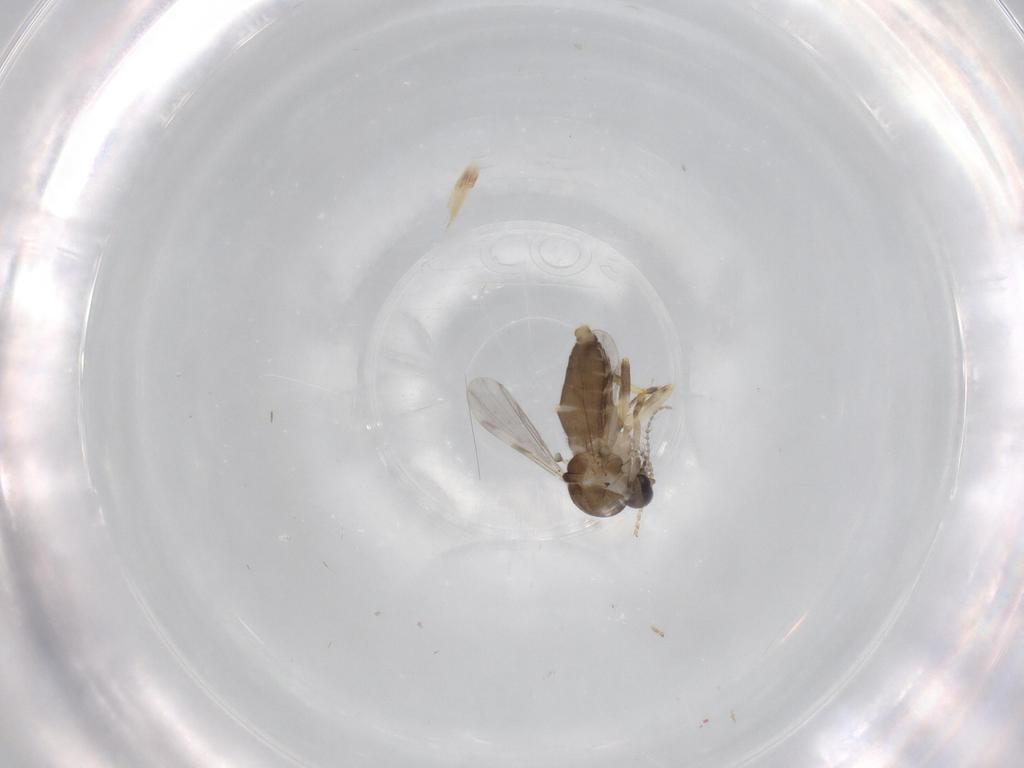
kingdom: Animalia
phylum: Arthropoda
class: Insecta
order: Diptera
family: Ceratopogonidae
